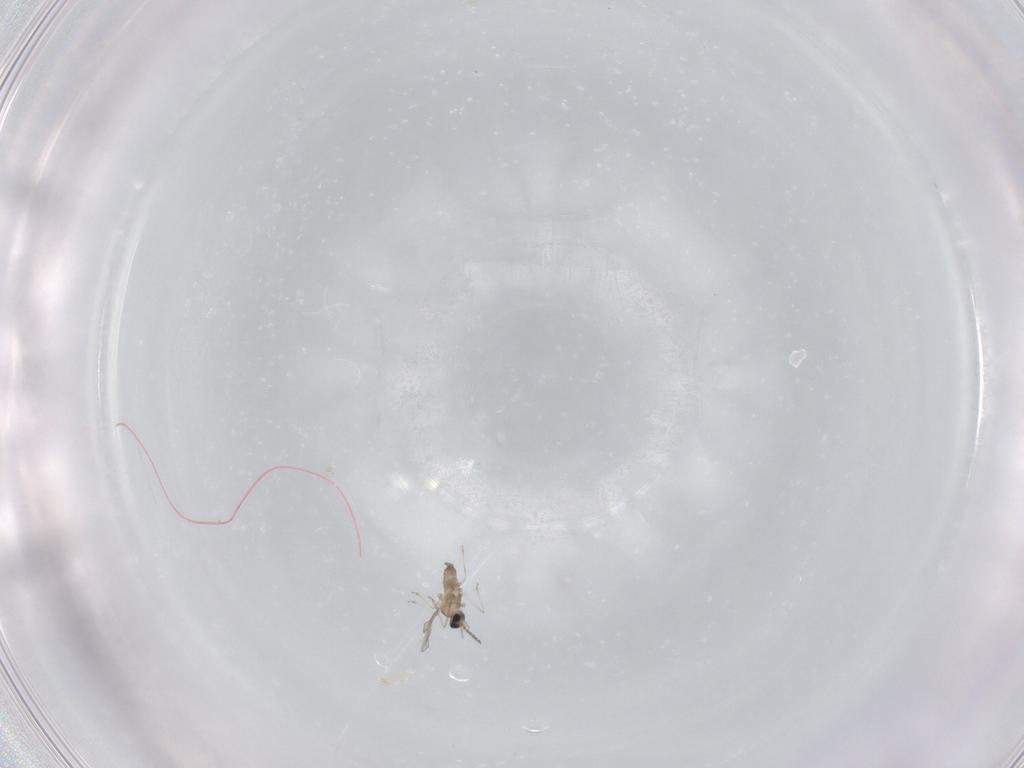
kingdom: Animalia
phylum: Arthropoda
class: Insecta
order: Diptera
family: Cecidomyiidae
